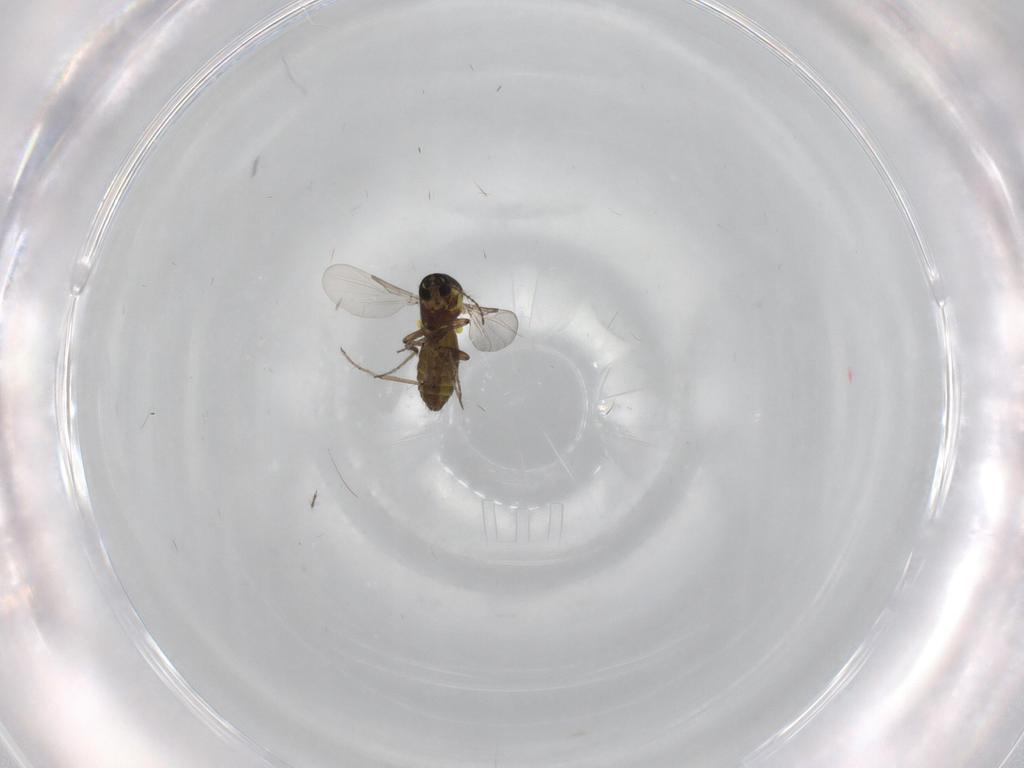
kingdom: Animalia
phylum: Arthropoda
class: Insecta
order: Diptera
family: Ceratopogonidae
